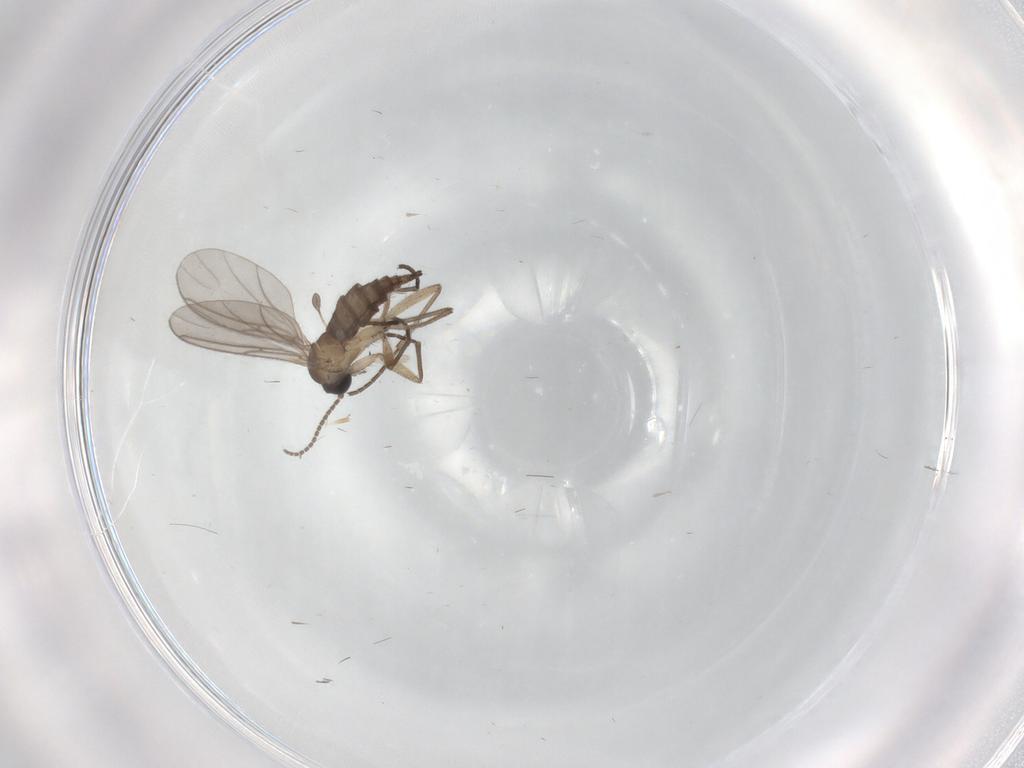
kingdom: Animalia
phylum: Arthropoda
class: Insecta
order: Diptera
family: Sciaridae
